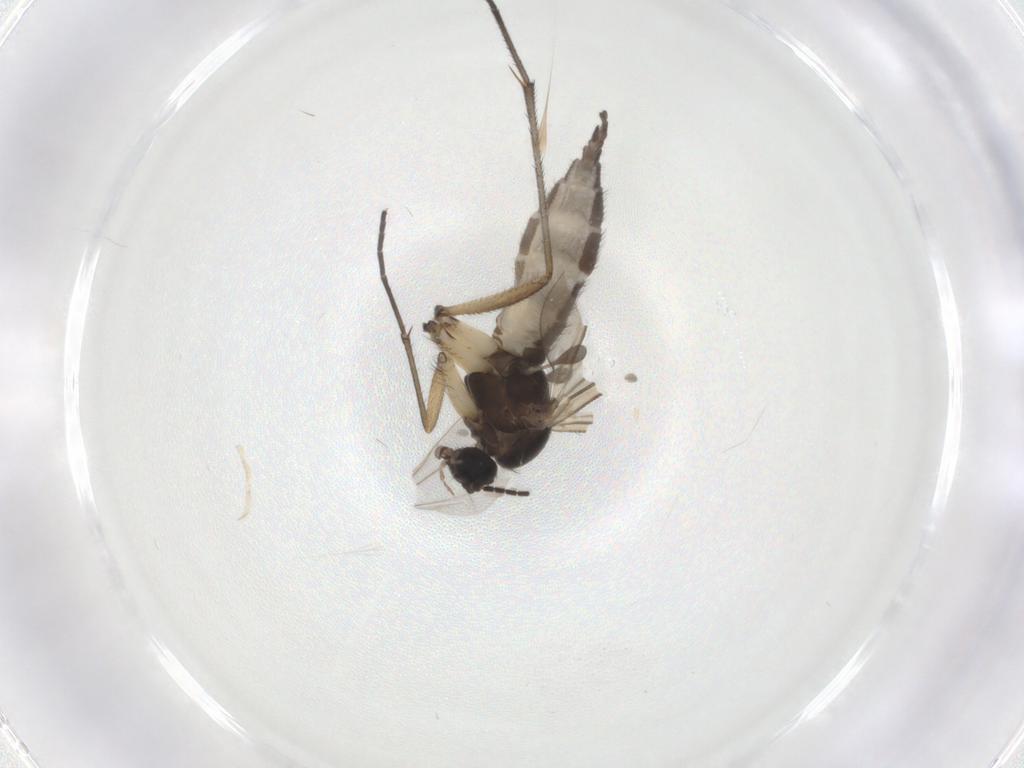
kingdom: Animalia
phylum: Arthropoda
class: Insecta
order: Diptera
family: Sciaridae
